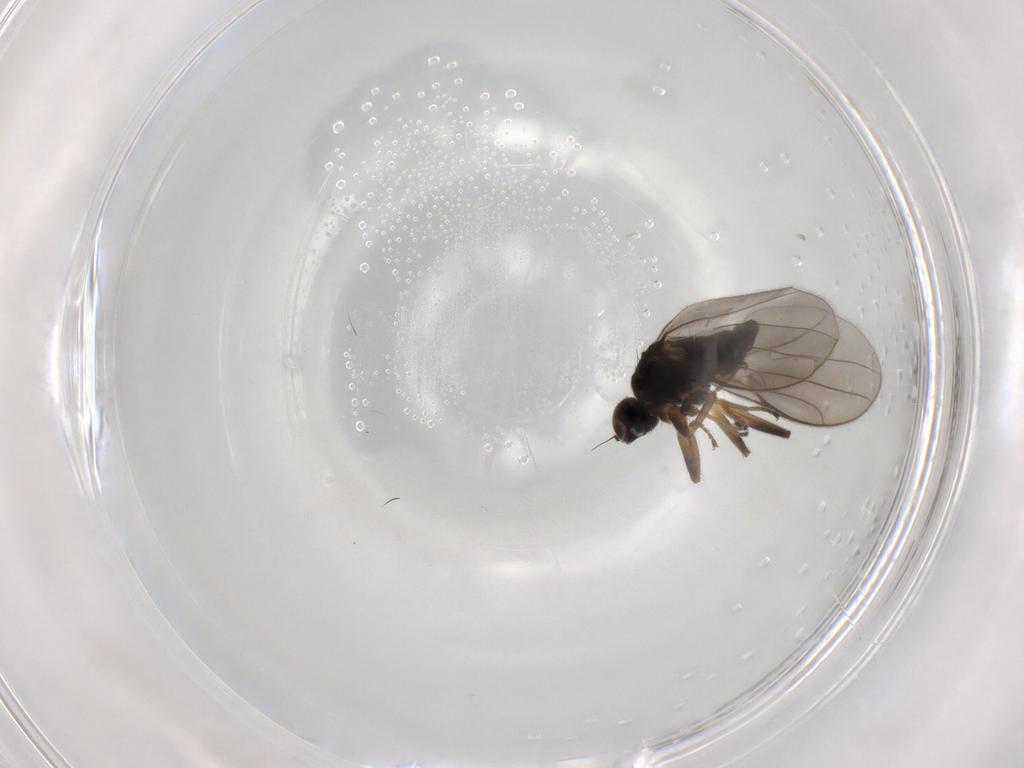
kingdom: Animalia
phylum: Arthropoda
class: Insecta
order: Diptera
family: Hybotidae
